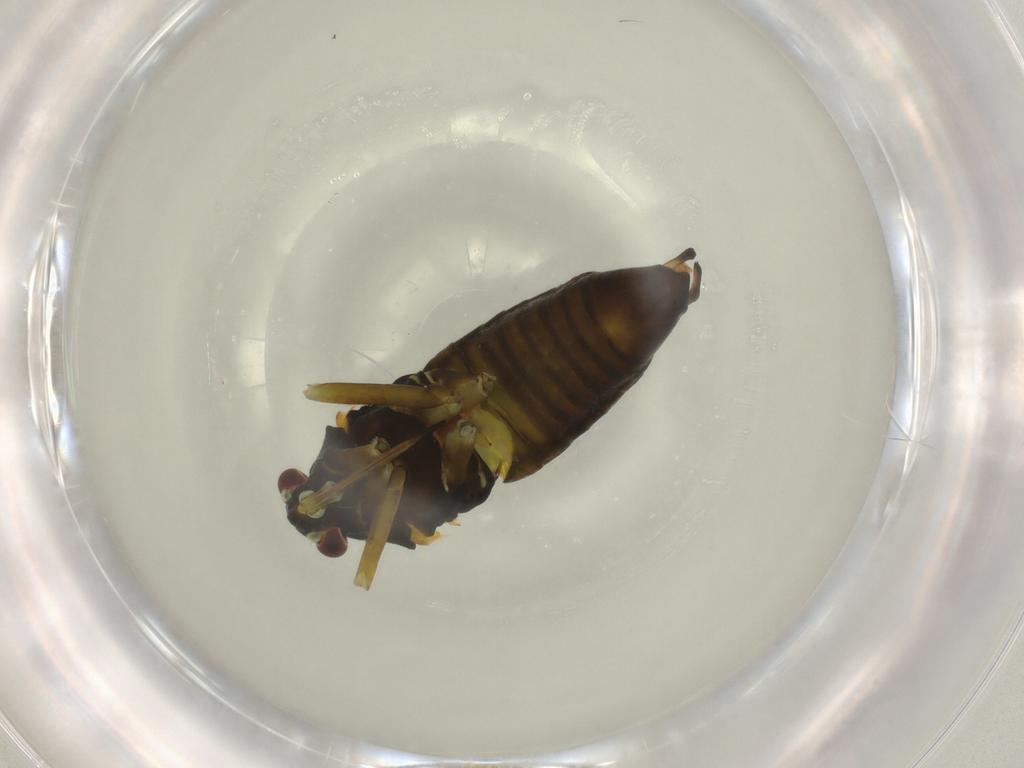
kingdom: Animalia
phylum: Arthropoda
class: Insecta
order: Hemiptera
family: Miridae
